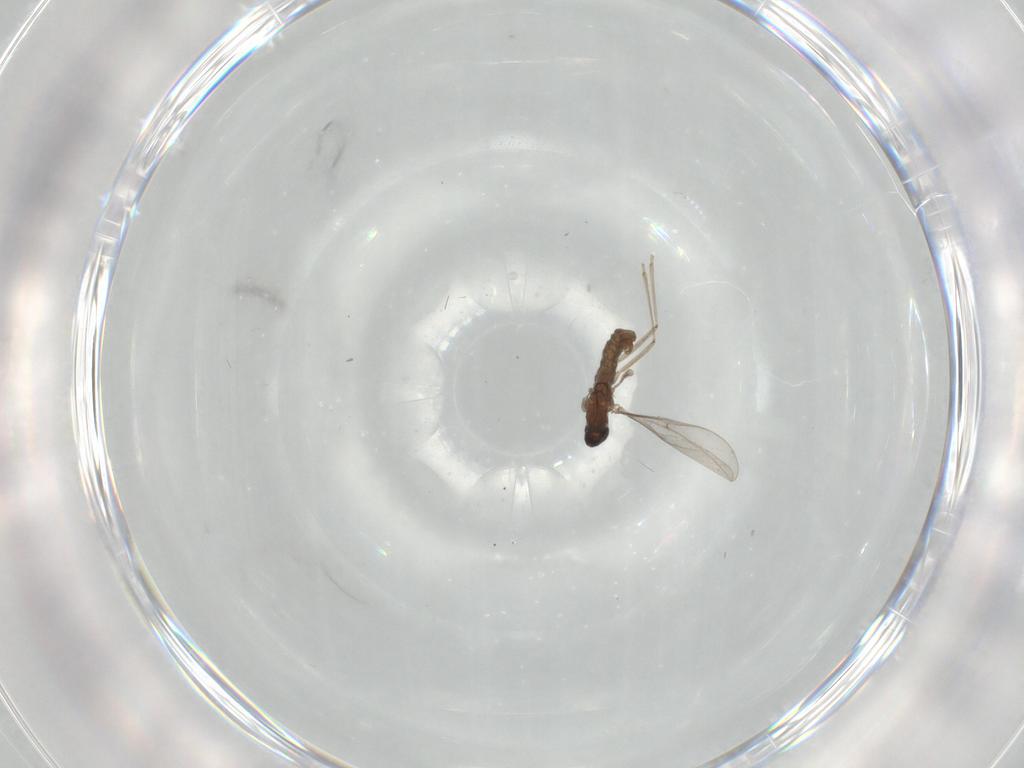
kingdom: Animalia
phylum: Arthropoda
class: Insecta
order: Diptera
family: Cecidomyiidae
